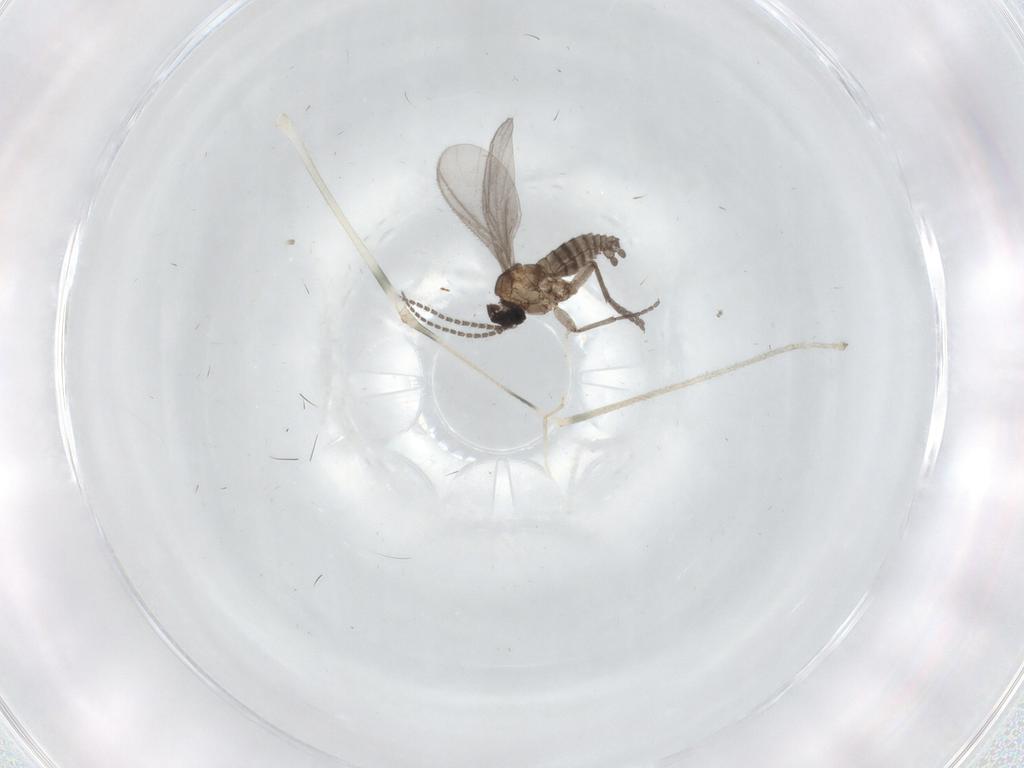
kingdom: Animalia
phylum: Arthropoda
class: Insecta
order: Diptera
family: Sciaridae
